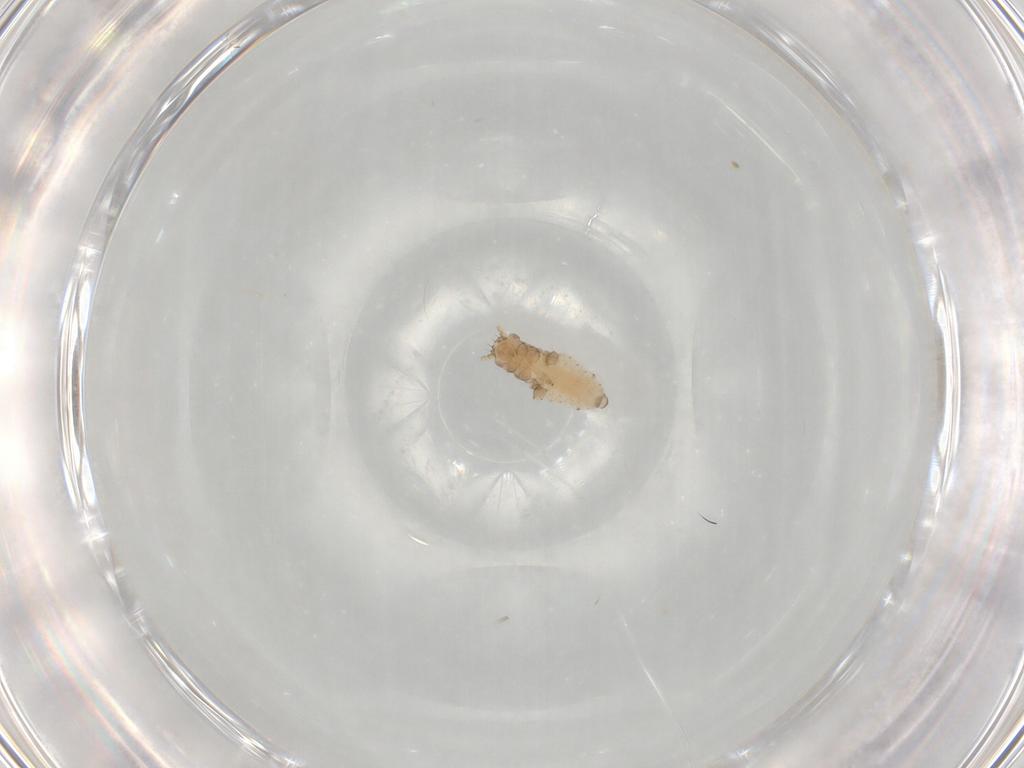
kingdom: Animalia
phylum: Arthropoda
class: Insecta
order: Hemiptera
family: Aphididae
